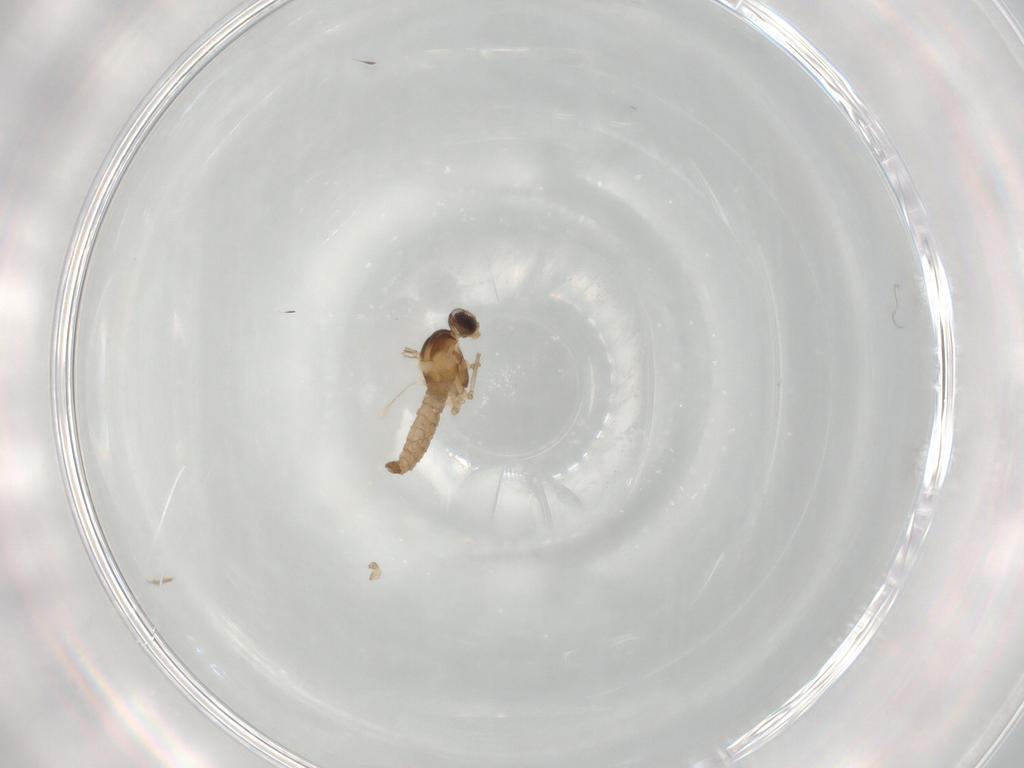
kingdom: Animalia
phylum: Arthropoda
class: Insecta
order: Diptera
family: Cecidomyiidae
